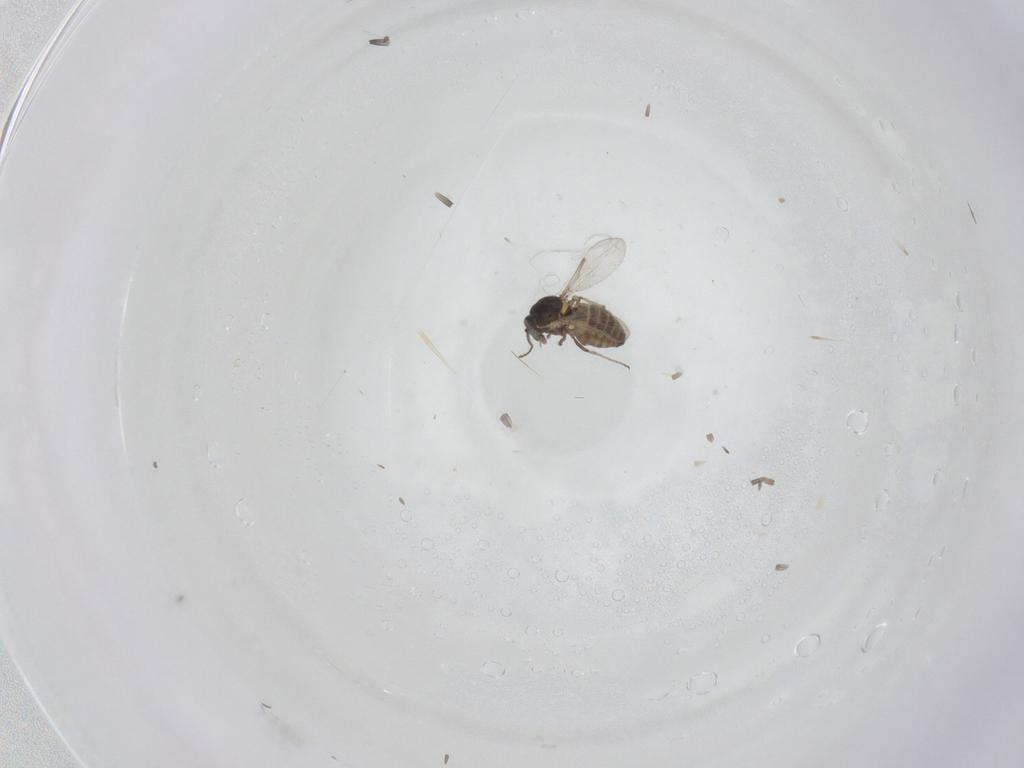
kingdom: Animalia
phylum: Arthropoda
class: Insecta
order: Diptera
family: Ceratopogonidae
